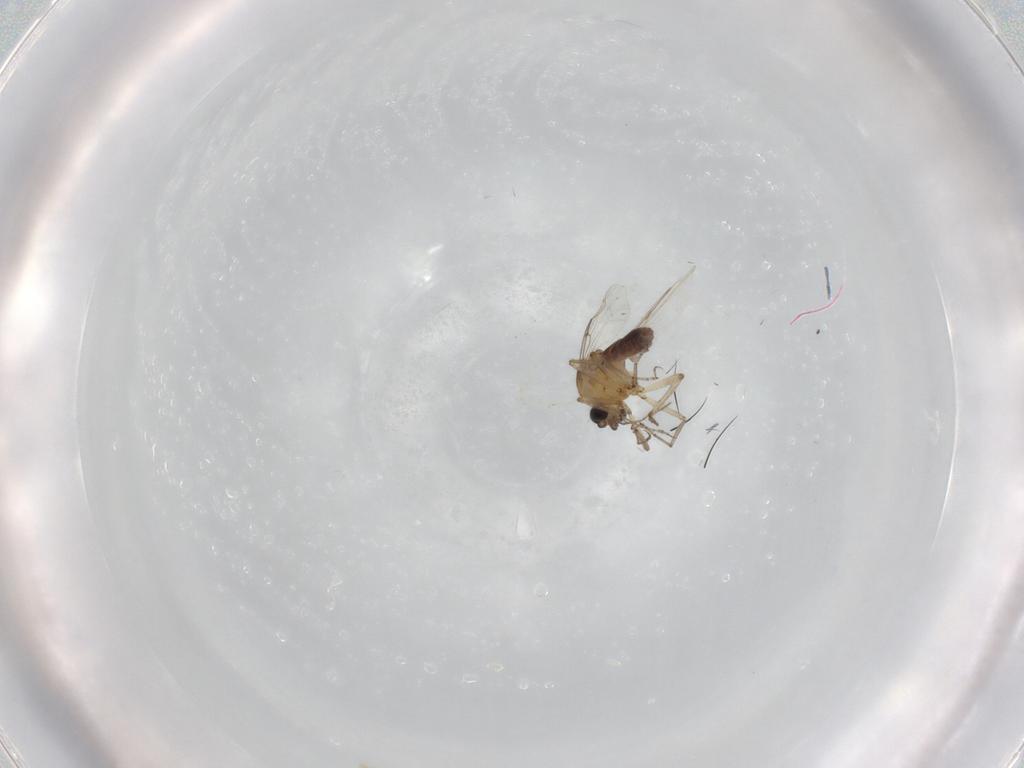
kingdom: Animalia
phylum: Arthropoda
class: Insecta
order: Diptera
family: Ceratopogonidae
